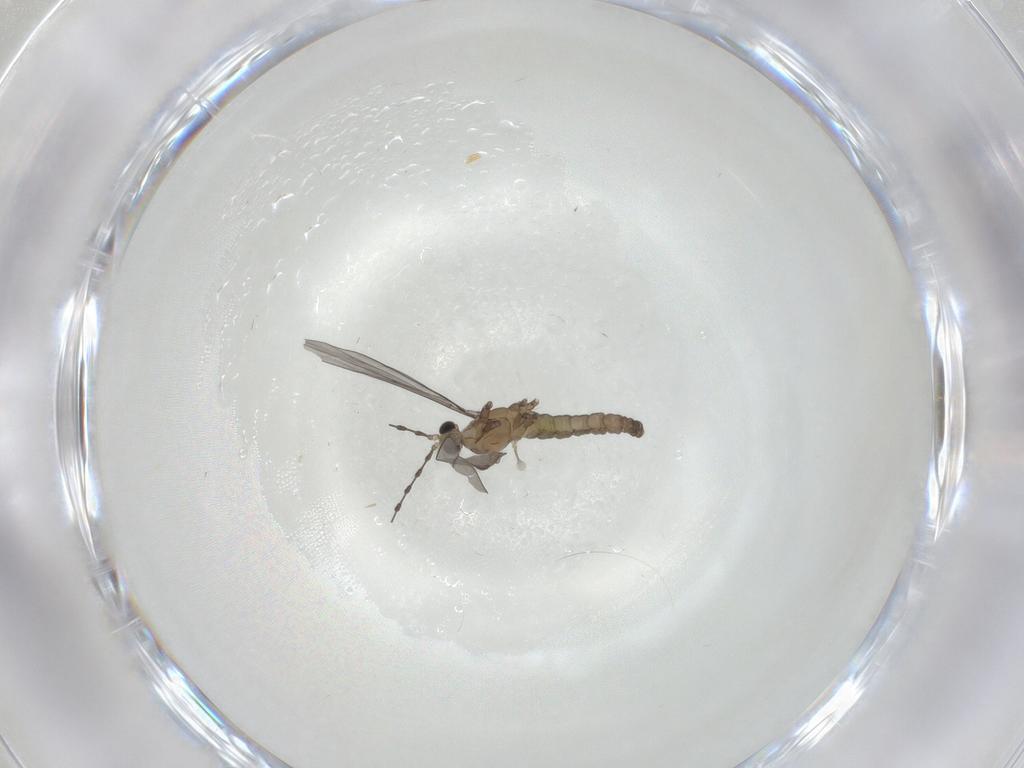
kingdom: Animalia
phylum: Arthropoda
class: Insecta
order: Diptera
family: Cecidomyiidae
